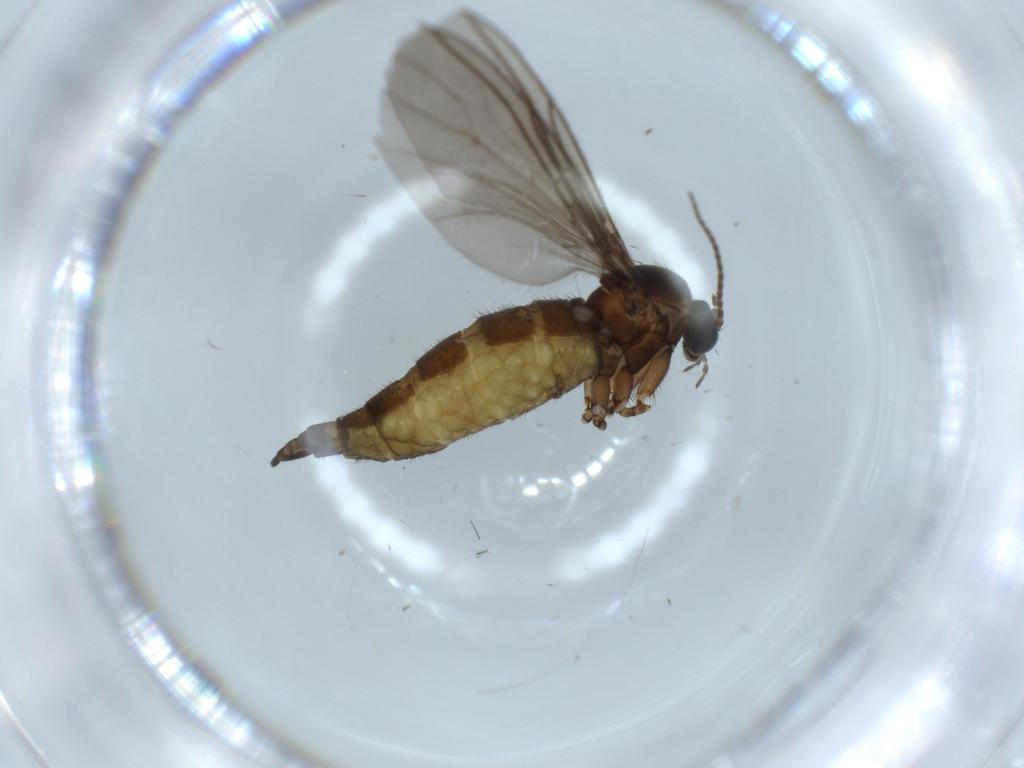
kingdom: Animalia
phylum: Arthropoda
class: Insecta
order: Diptera
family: Sciaridae
